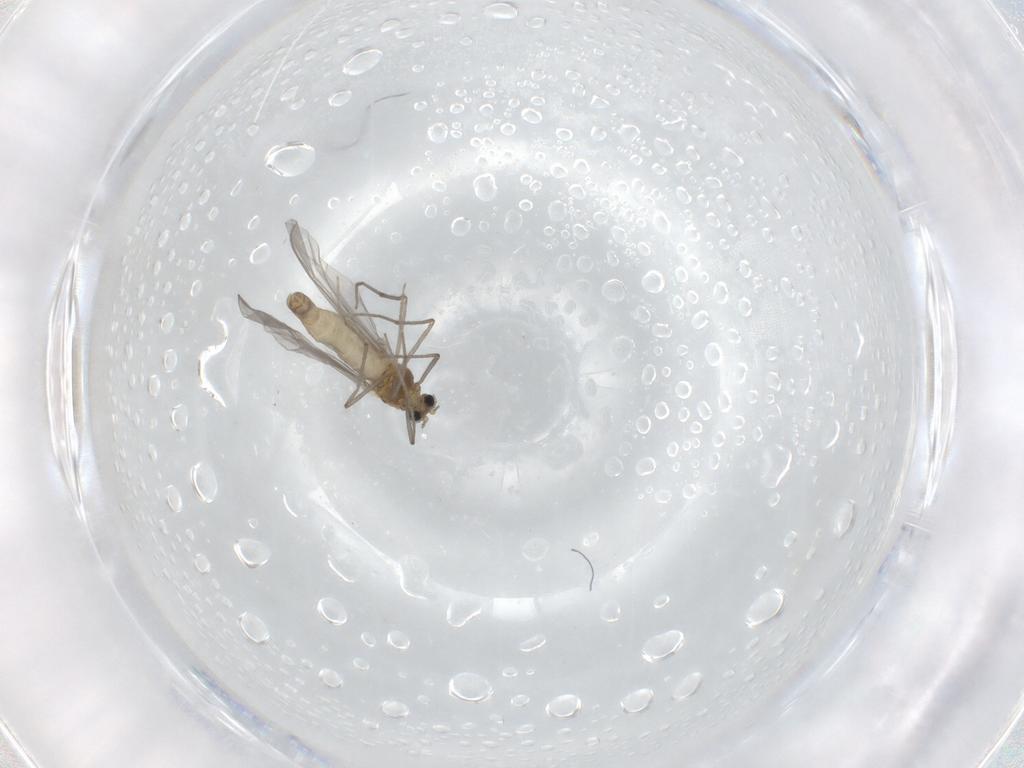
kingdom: Animalia
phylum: Arthropoda
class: Insecta
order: Diptera
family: Chironomidae
